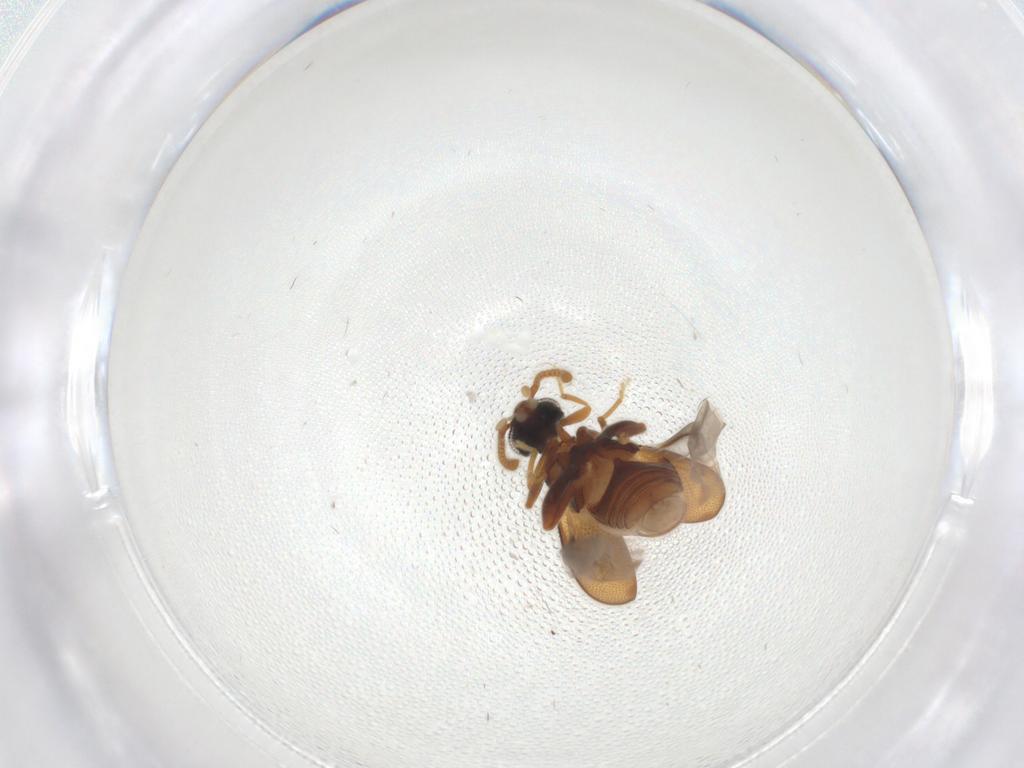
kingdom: Animalia
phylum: Arthropoda
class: Insecta
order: Coleoptera
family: Aderidae
